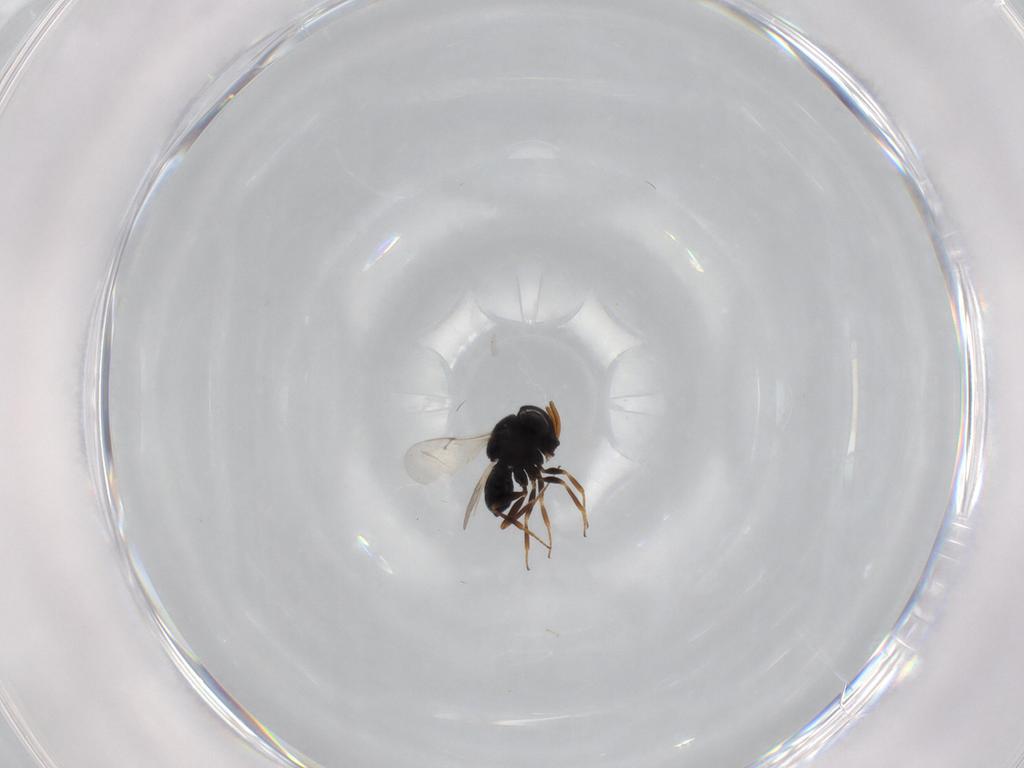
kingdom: Animalia
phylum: Arthropoda
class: Insecta
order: Hymenoptera
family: Scelionidae
